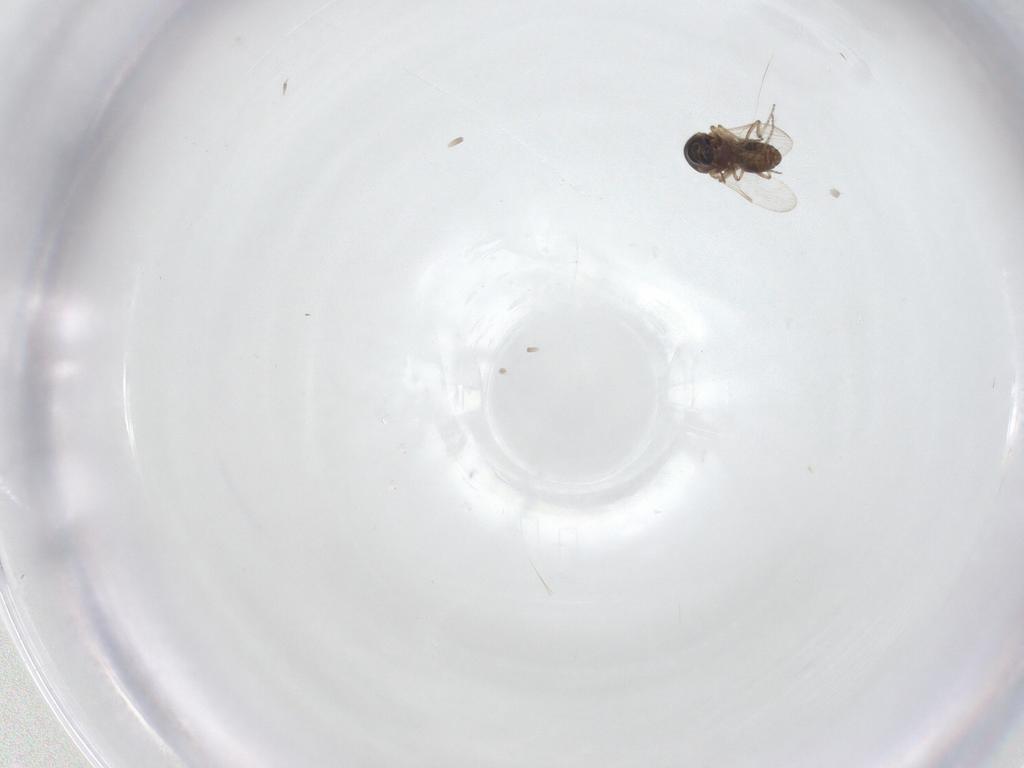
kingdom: Animalia
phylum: Arthropoda
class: Insecta
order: Diptera
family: Ceratopogonidae
